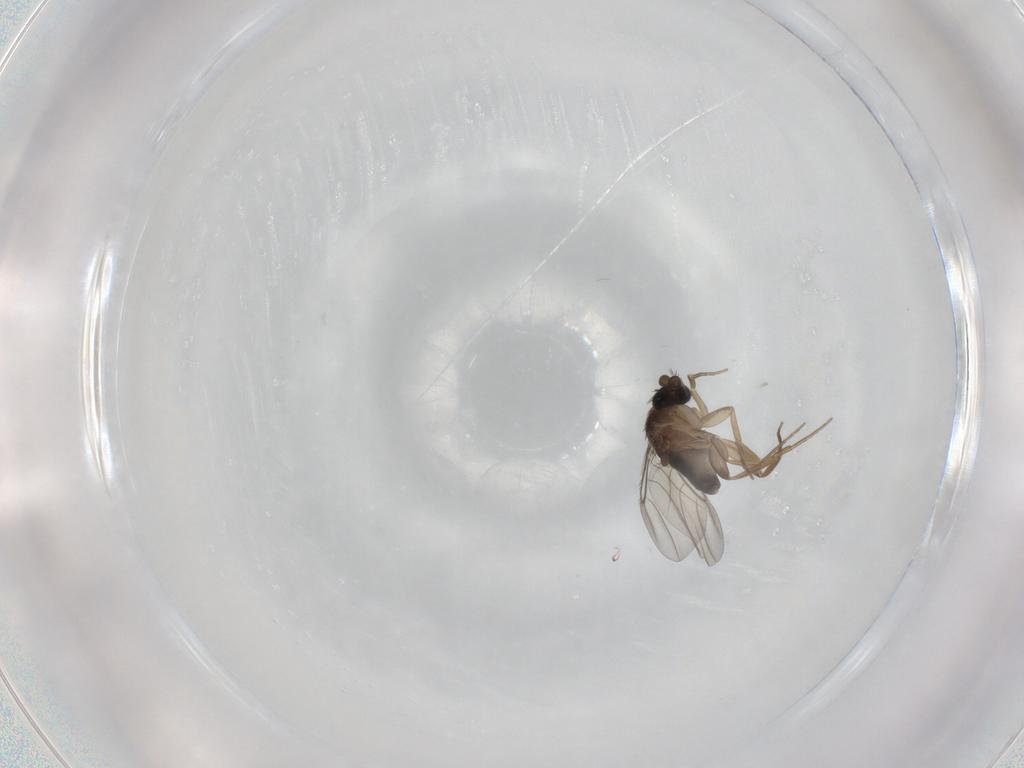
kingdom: Animalia
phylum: Arthropoda
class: Insecta
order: Diptera
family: Phoridae
